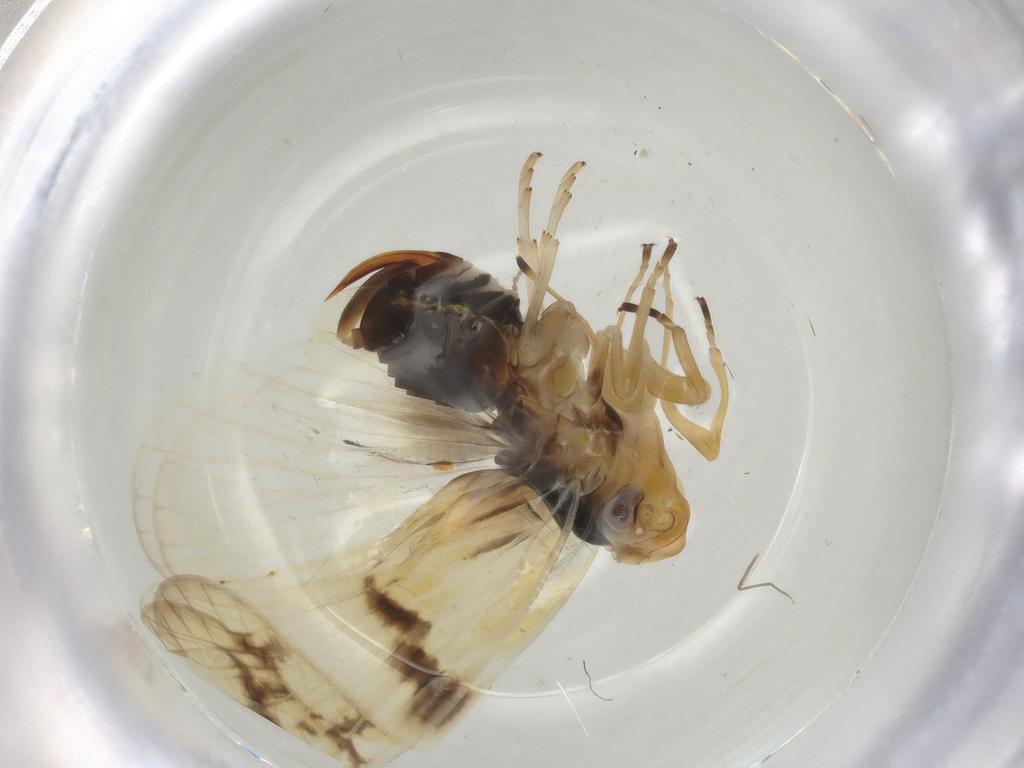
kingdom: Animalia
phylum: Arthropoda
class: Insecta
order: Hemiptera
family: Cixiidae
